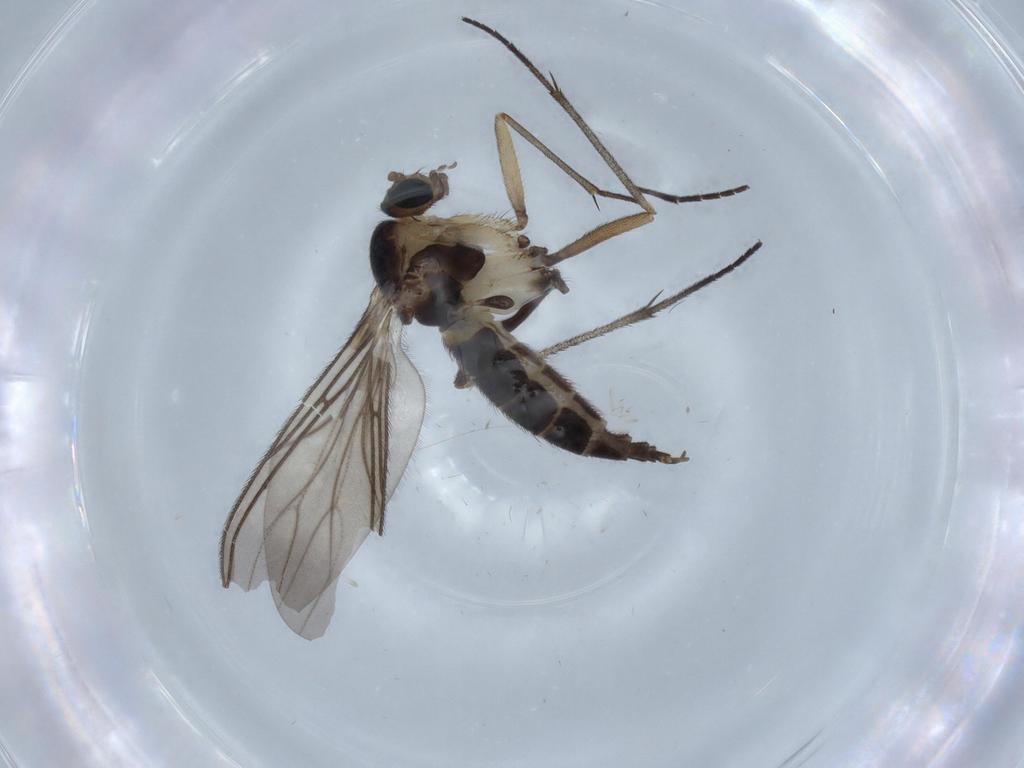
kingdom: Animalia
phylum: Arthropoda
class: Insecta
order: Diptera
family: Chironomidae
